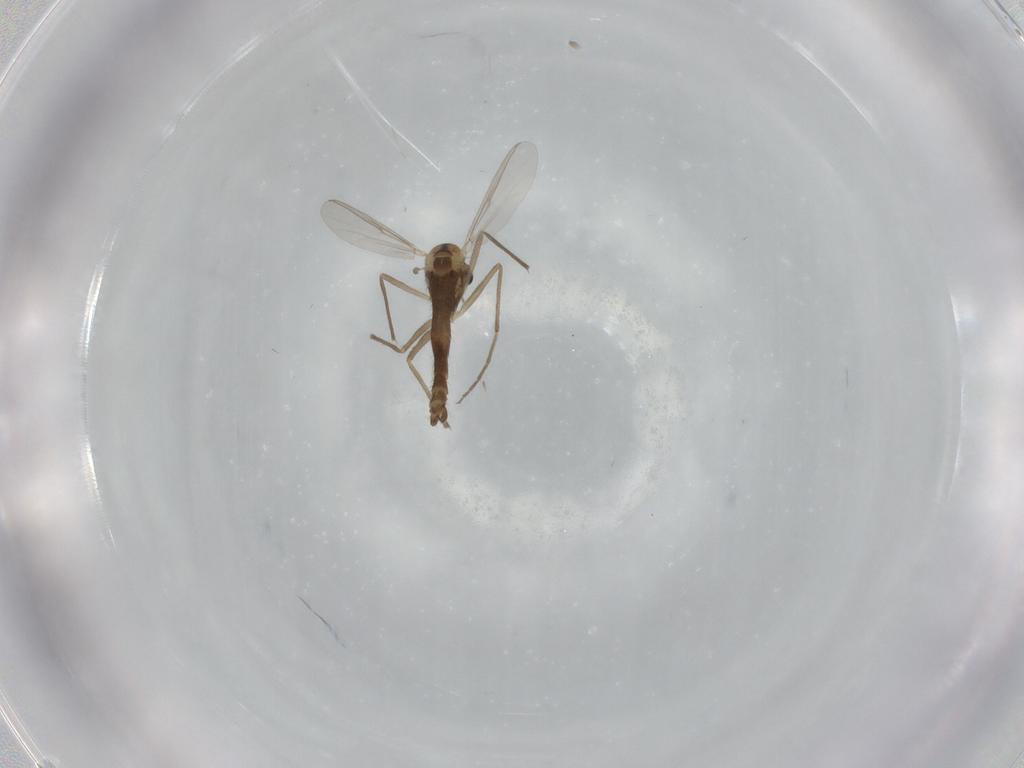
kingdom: Animalia
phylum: Arthropoda
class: Insecta
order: Diptera
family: Chironomidae
